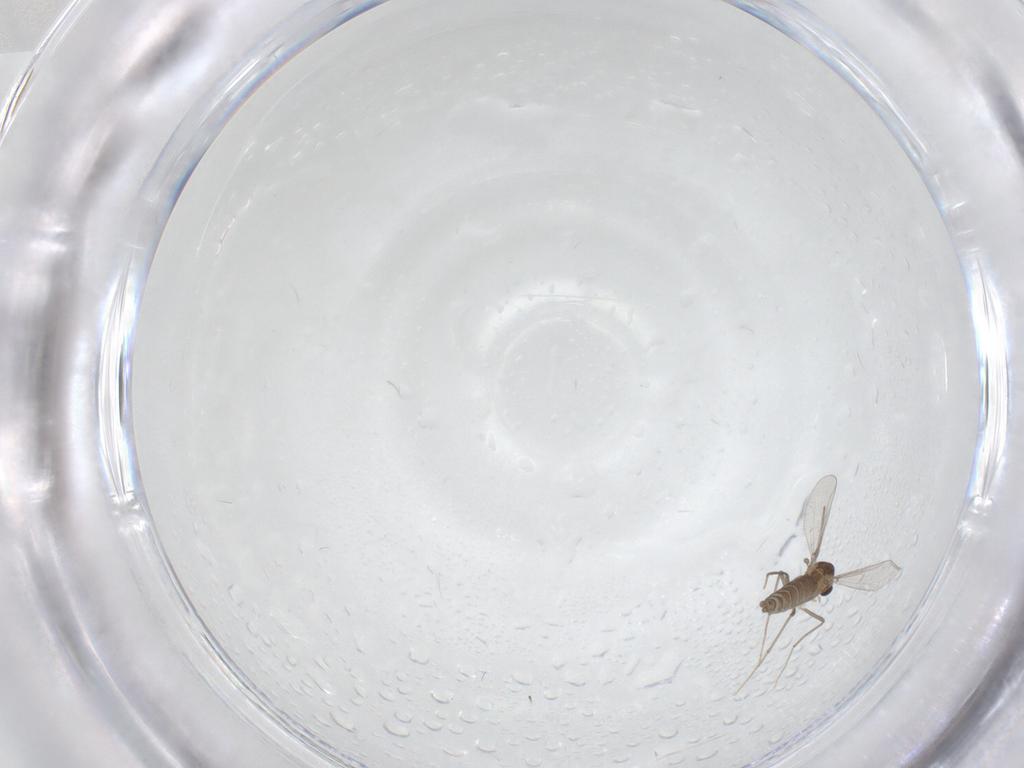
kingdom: Animalia
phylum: Arthropoda
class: Insecta
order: Diptera
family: Chironomidae
